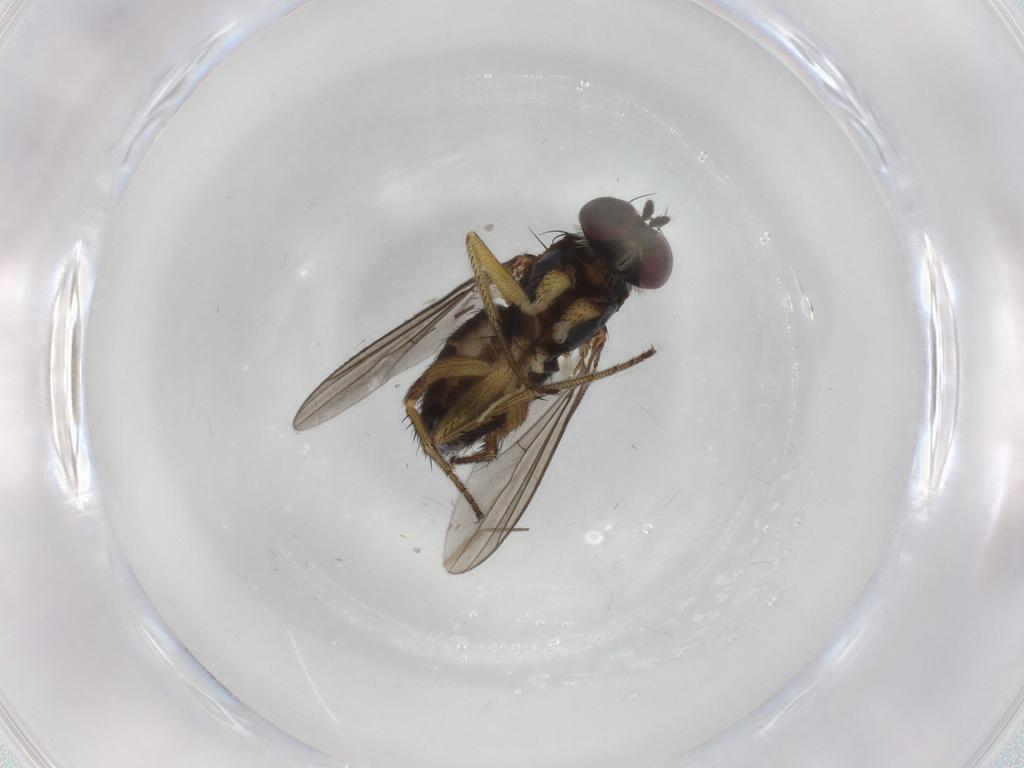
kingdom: Animalia
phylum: Arthropoda
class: Insecta
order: Diptera
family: Dolichopodidae
